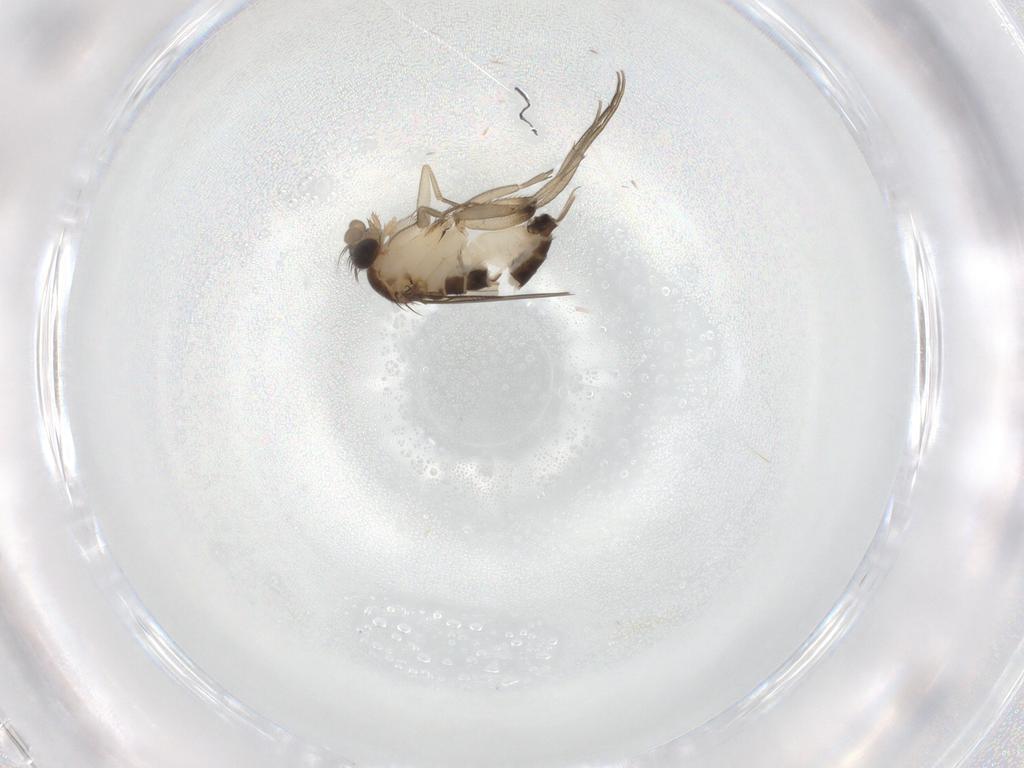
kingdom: Animalia
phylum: Arthropoda
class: Insecta
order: Diptera
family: Phoridae
